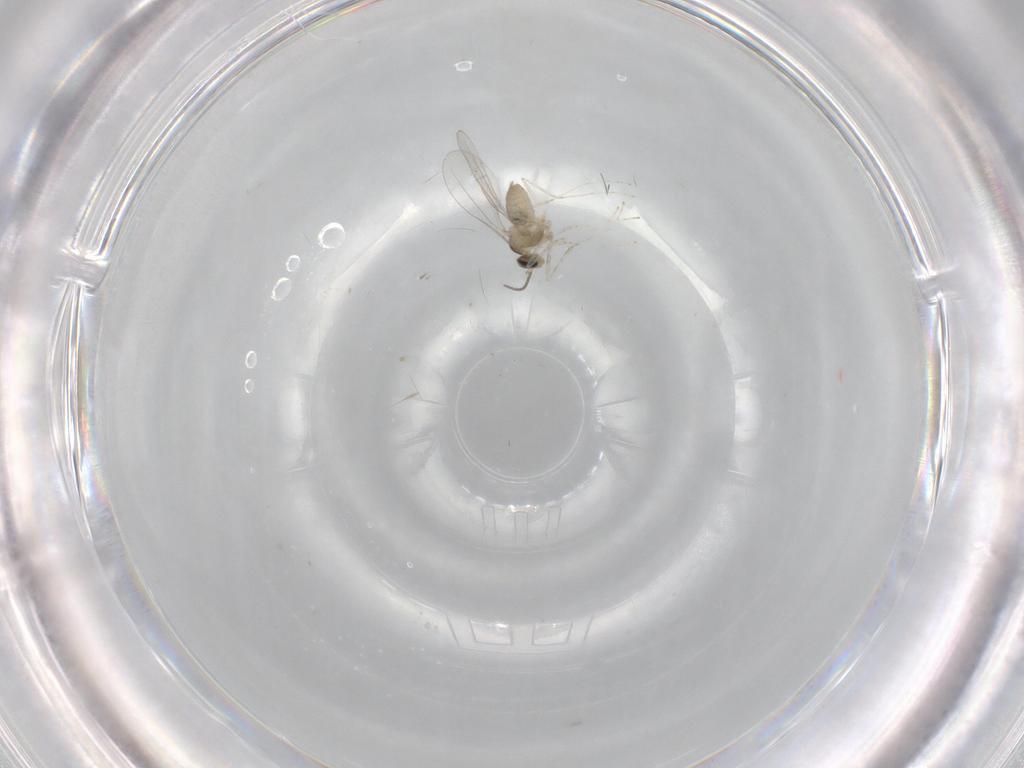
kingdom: Animalia
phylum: Arthropoda
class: Insecta
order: Diptera
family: Cecidomyiidae
